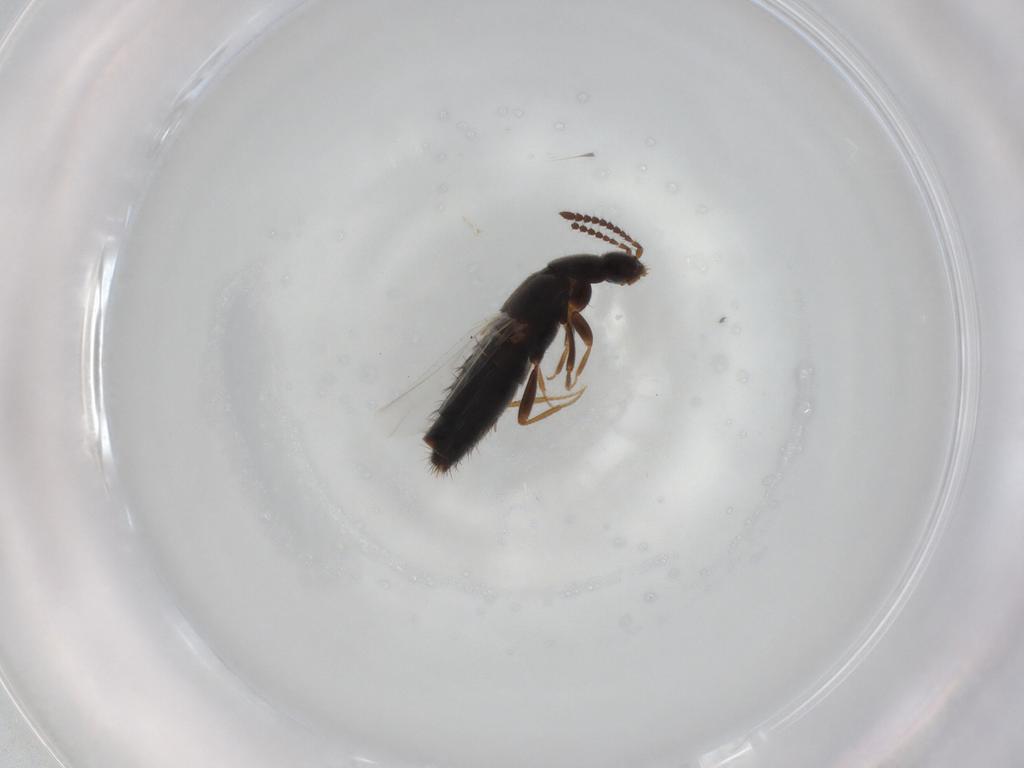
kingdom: Animalia
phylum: Arthropoda
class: Insecta
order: Coleoptera
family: Staphylinidae
